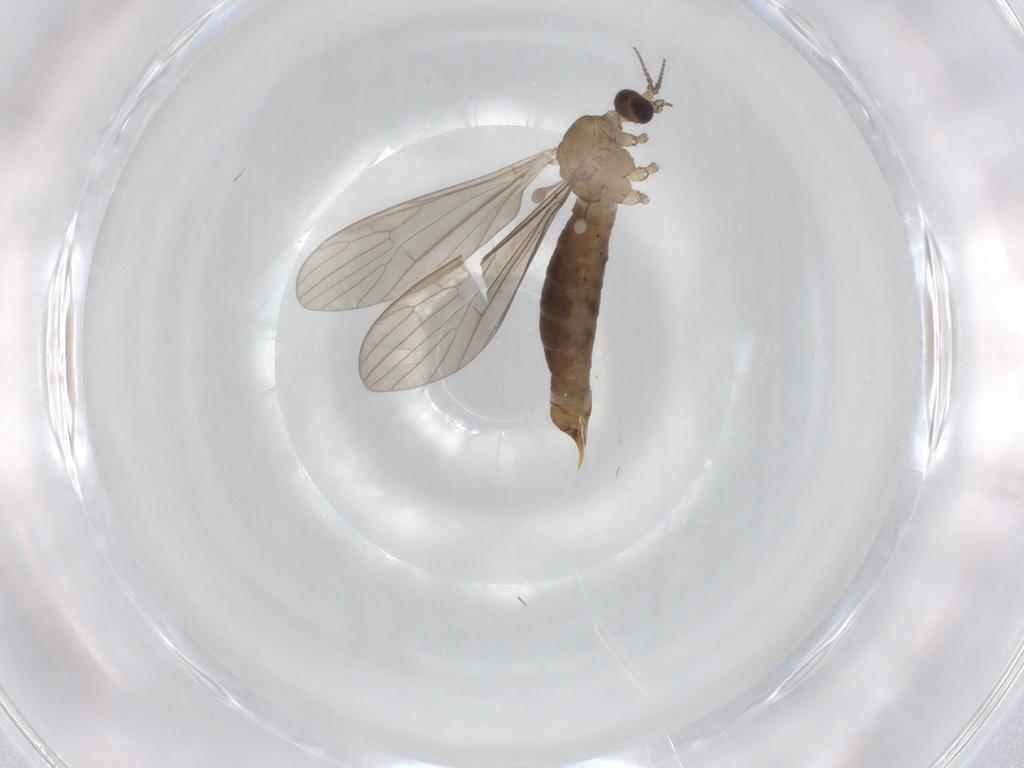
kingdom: Animalia
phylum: Arthropoda
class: Insecta
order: Diptera
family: Limoniidae
